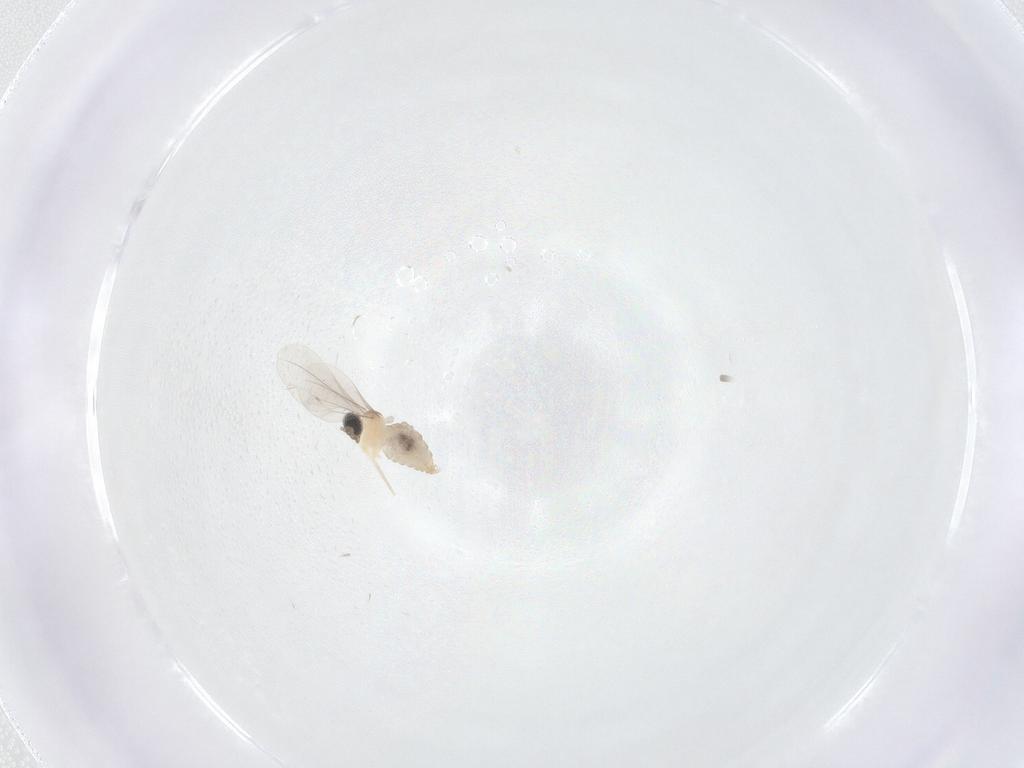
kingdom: Animalia
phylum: Arthropoda
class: Insecta
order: Diptera
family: Cecidomyiidae
